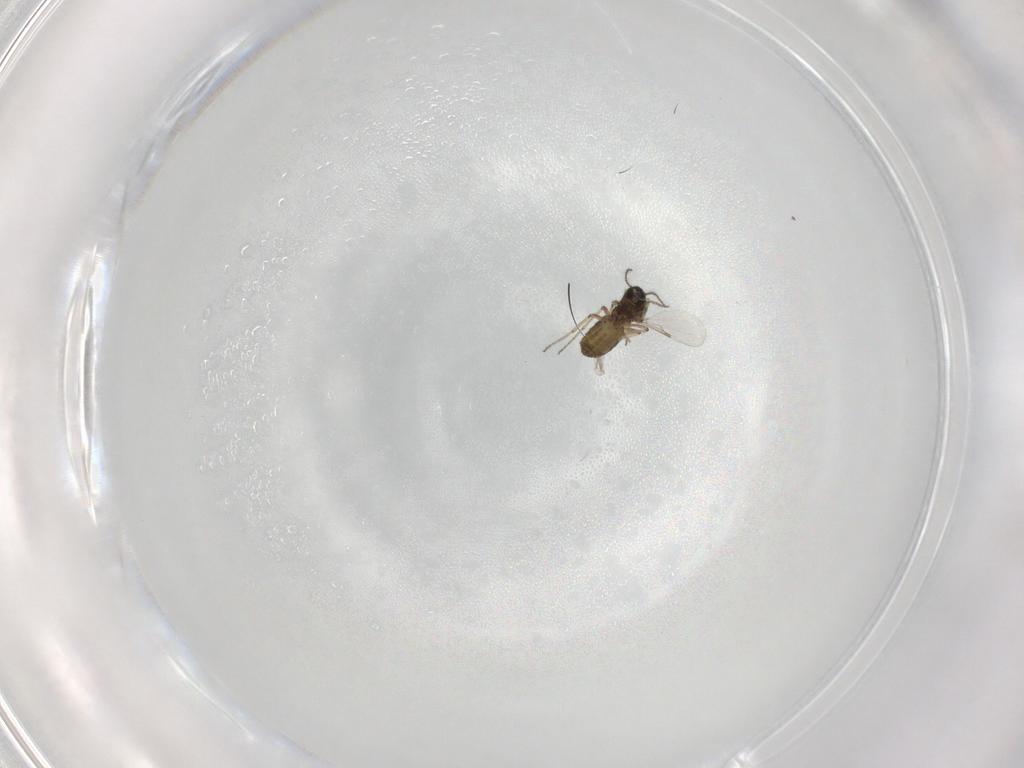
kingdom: Animalia
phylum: Arthropoda
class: Insecta
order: Diptera
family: Ceratopogonidae
